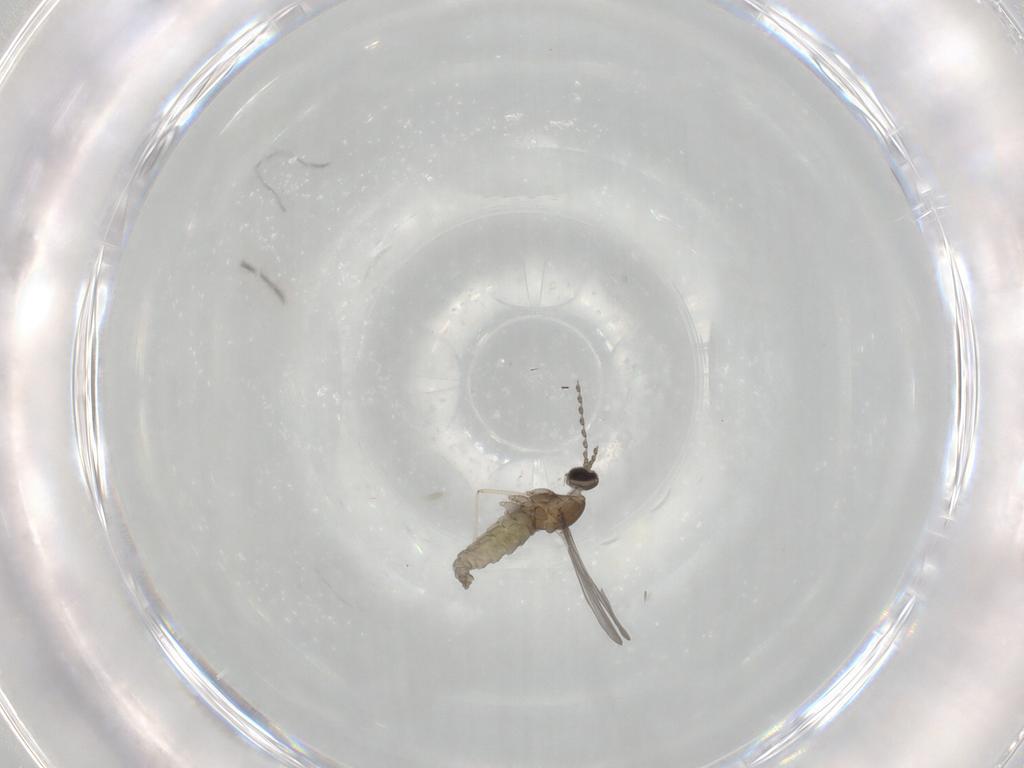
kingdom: Animalia
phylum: Arthropoda
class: Insecta
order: Diptera
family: Cecidomyiidae
